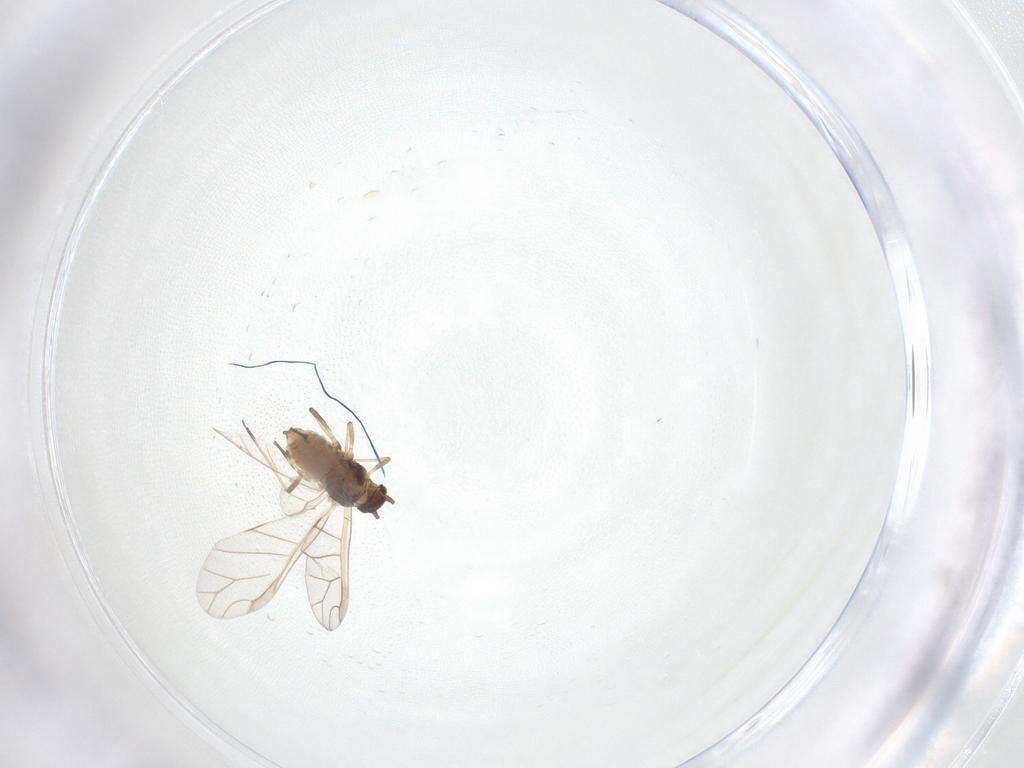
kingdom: Animalia
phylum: Arthropoda
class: Insecta
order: Hemiptera
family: Aphididae
